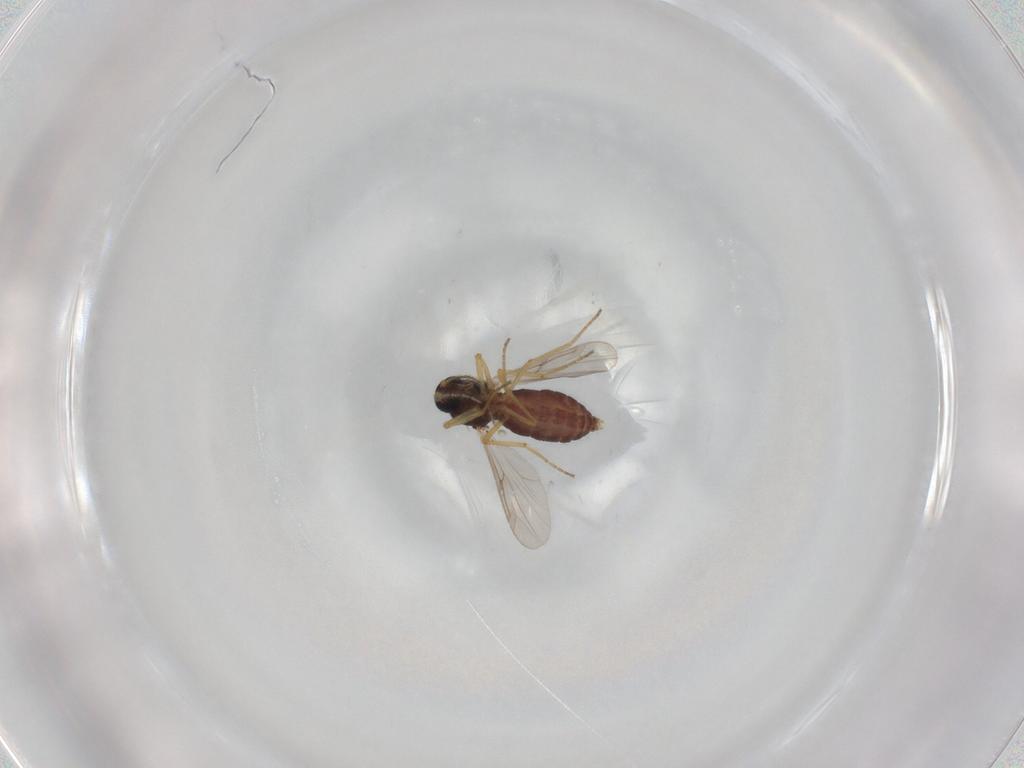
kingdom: Animalia
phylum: Arthropoda
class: Insecta
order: Diptera
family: Ceratopogonidae
